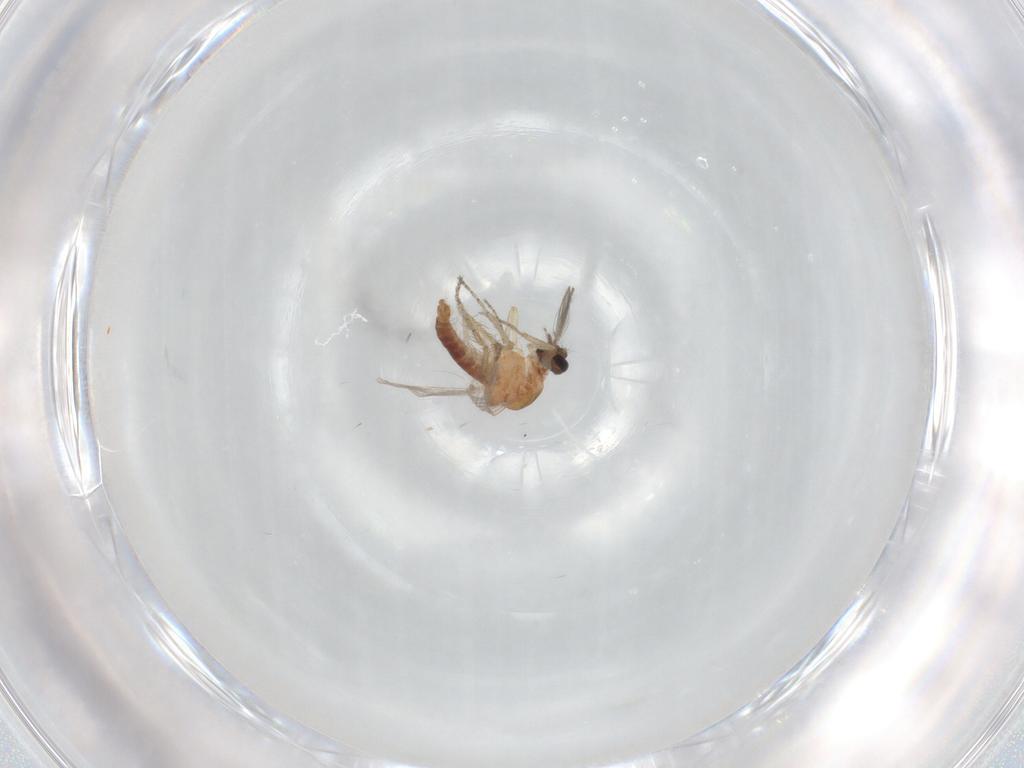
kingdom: Animalia
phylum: Arthropoda
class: Insecta
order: Diptera
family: Ceratopogonidae
